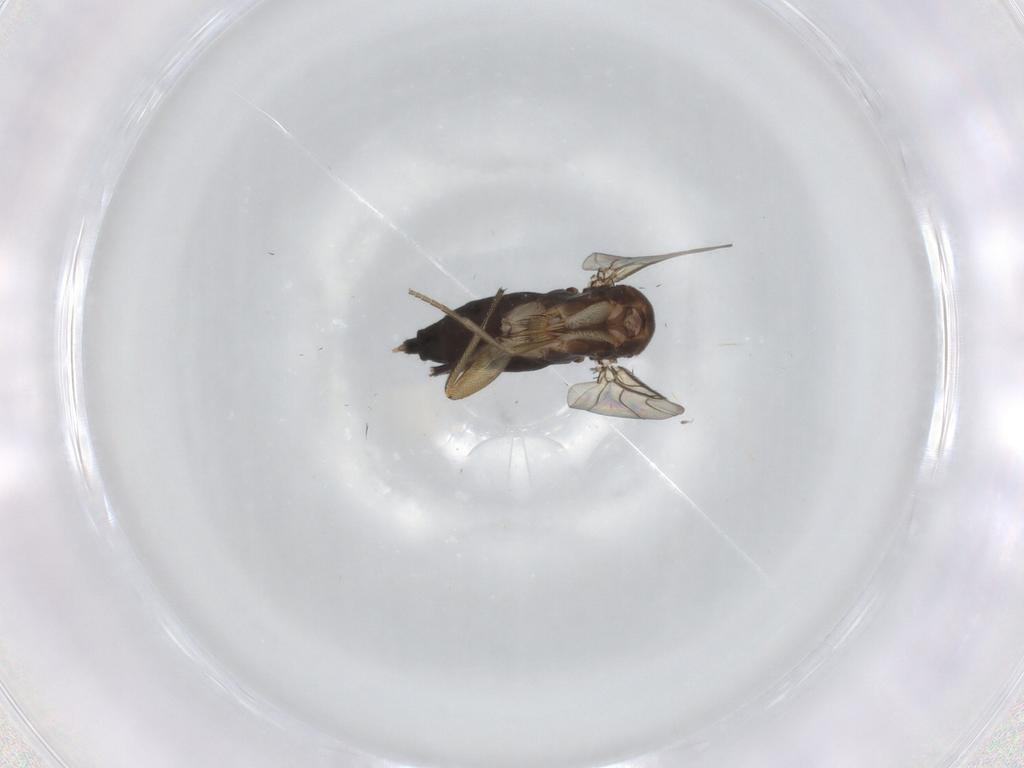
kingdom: Animalia
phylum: Arthropoda
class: Insecta
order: Diptera
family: Phoridae
